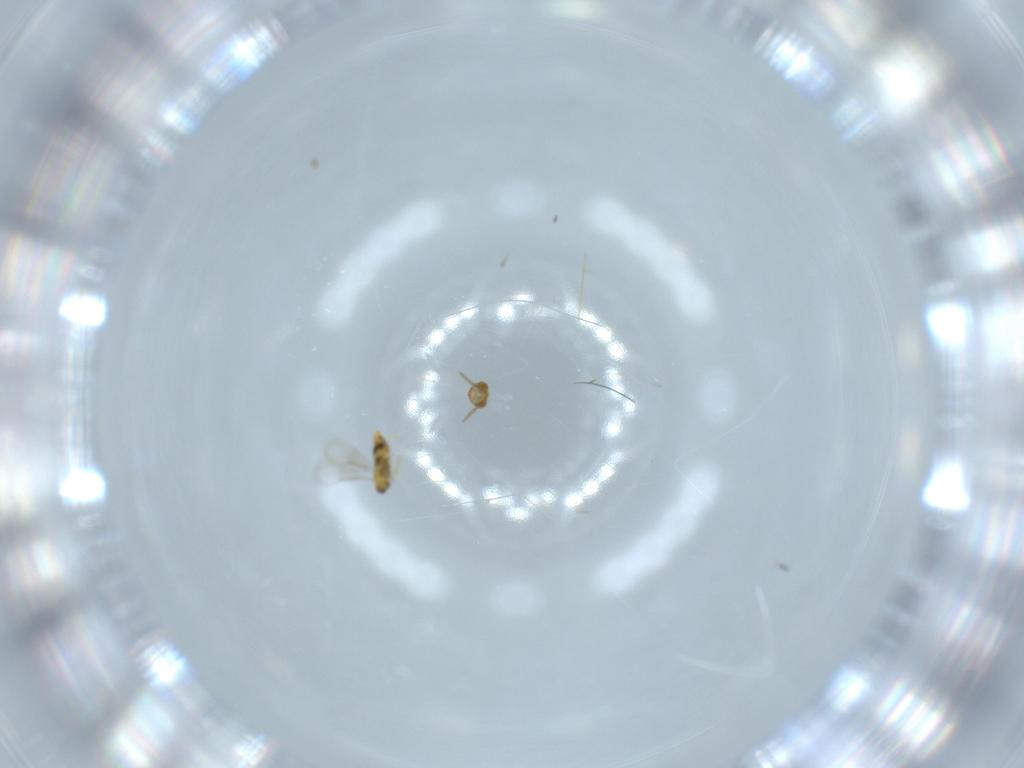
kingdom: Animalia
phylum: Arthropoda
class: Insecta
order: Hymenoptera
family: Aphelinidae
